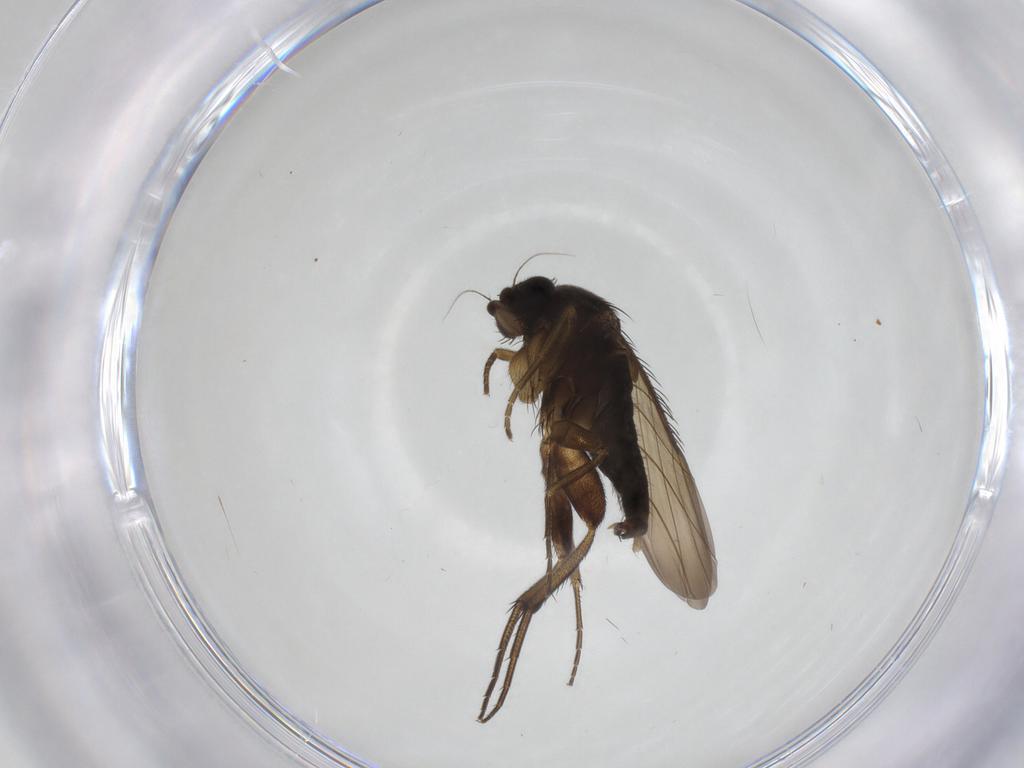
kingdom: Animalia
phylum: Arthropoda
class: Insecta
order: Diptera
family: Phoridae
